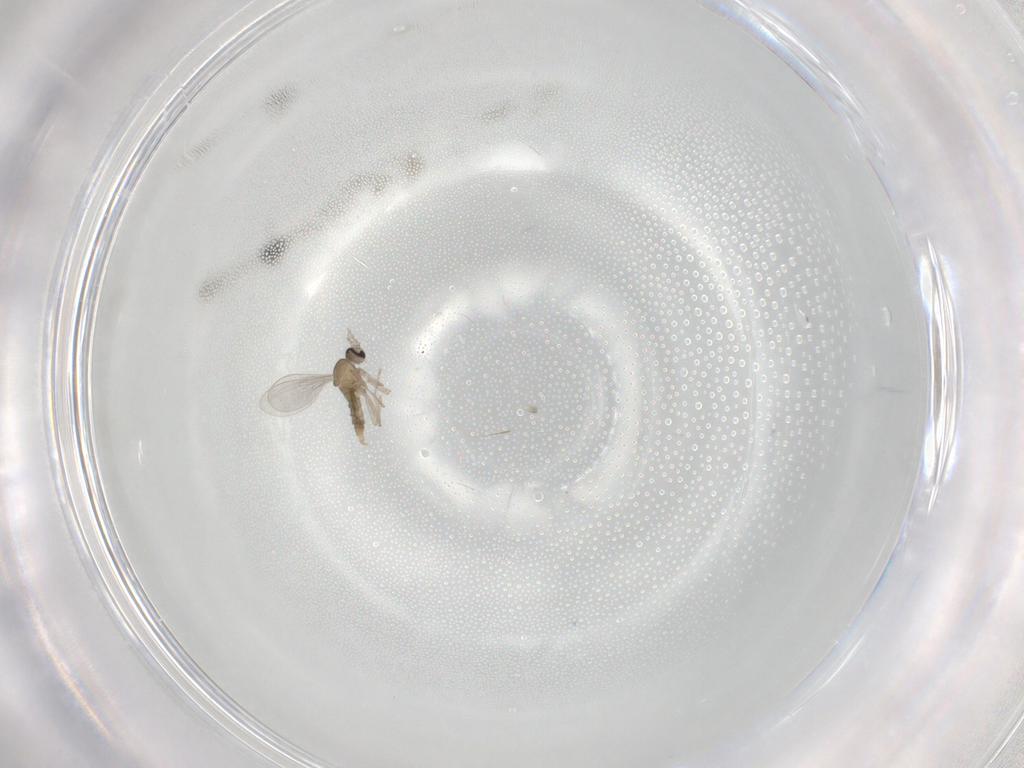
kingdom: Animalia
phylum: Arthropoda
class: Insecta
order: Diptera
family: Cecidomyiidae
